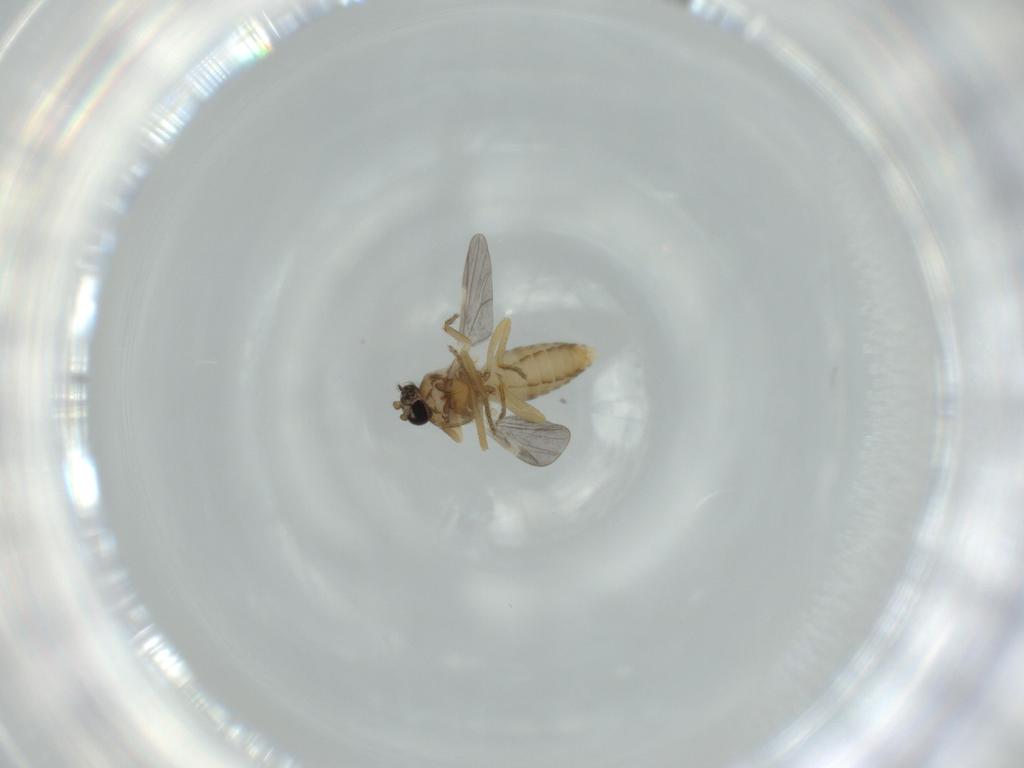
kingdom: Animalia
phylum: Arthropoda
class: Insecta
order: Diptera
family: Ceratopogonidae
